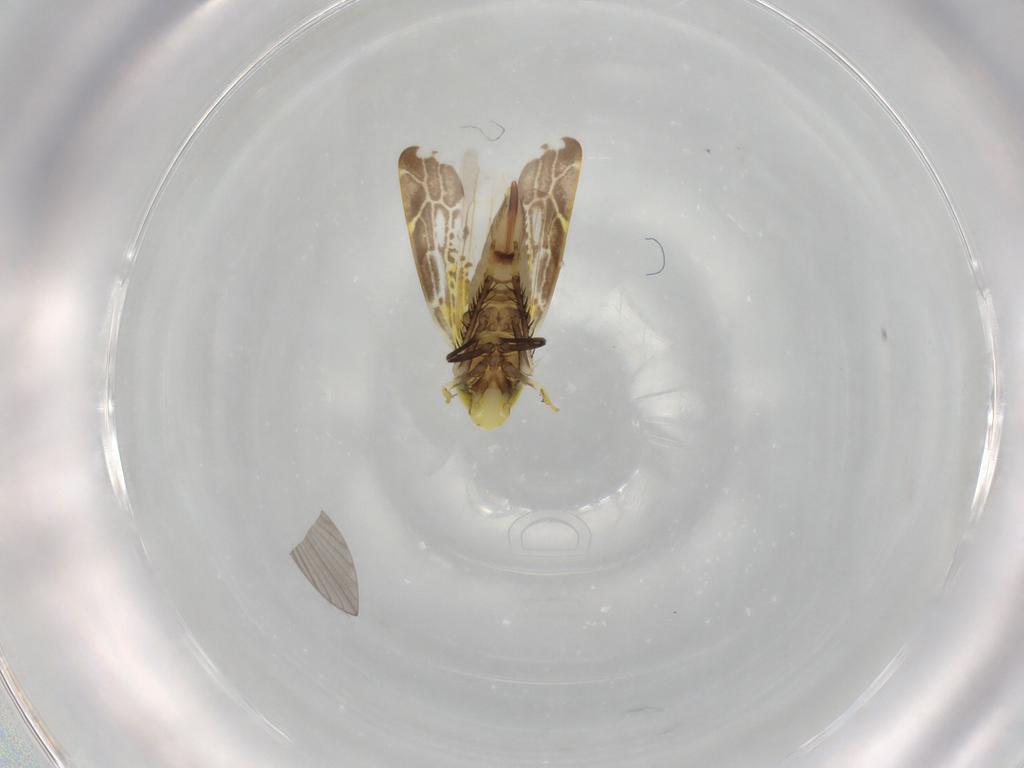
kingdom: Animalia
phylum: Arthropoda
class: Insecta
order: Hemiptera
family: Cicadellidae
